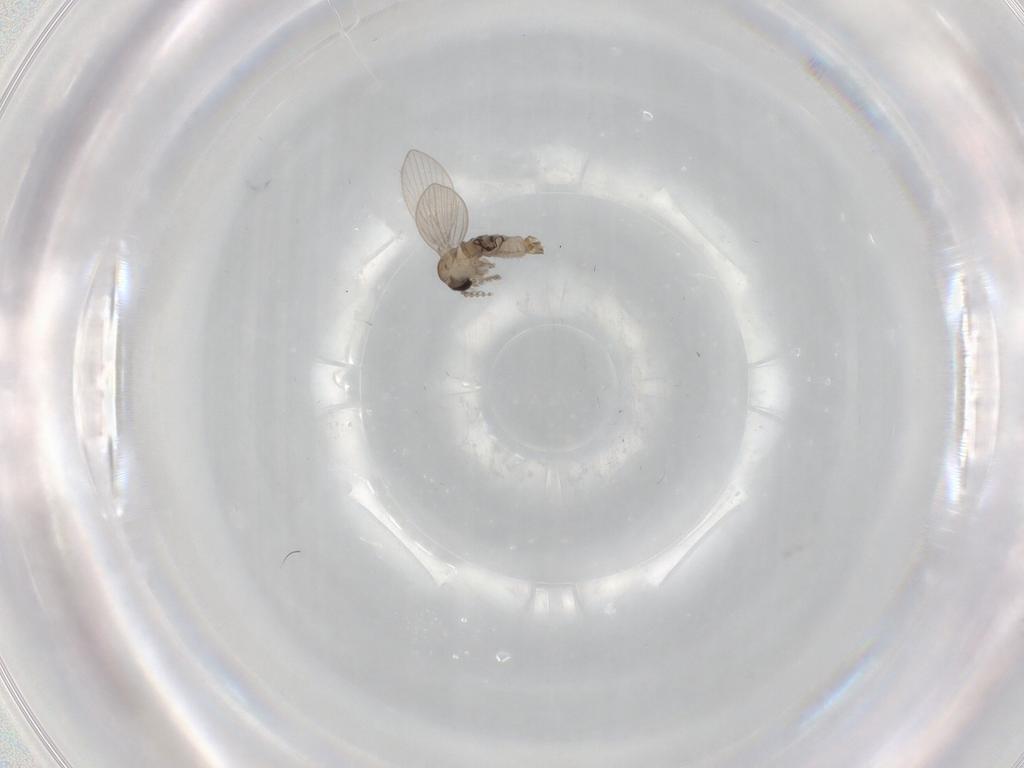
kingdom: Animalia
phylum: Arthropoda
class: Insecta
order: Diptera
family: Psychodidae
